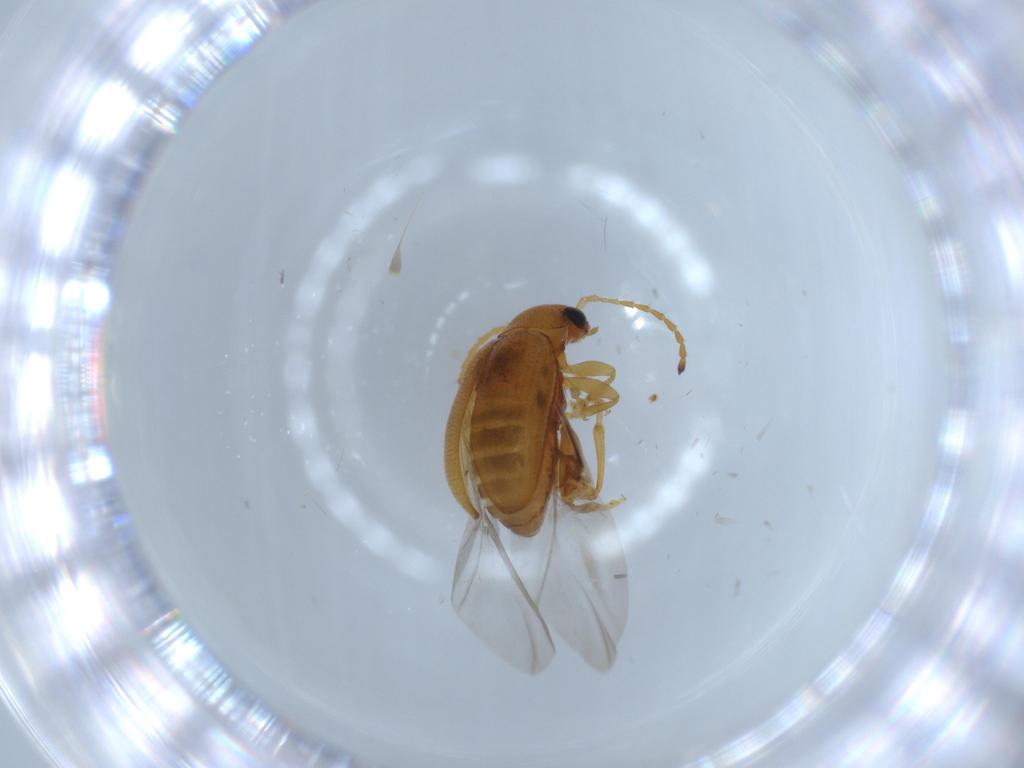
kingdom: Animalia
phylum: Arthropoda
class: Insecta
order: Coleoptera
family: Chrysomelidae
